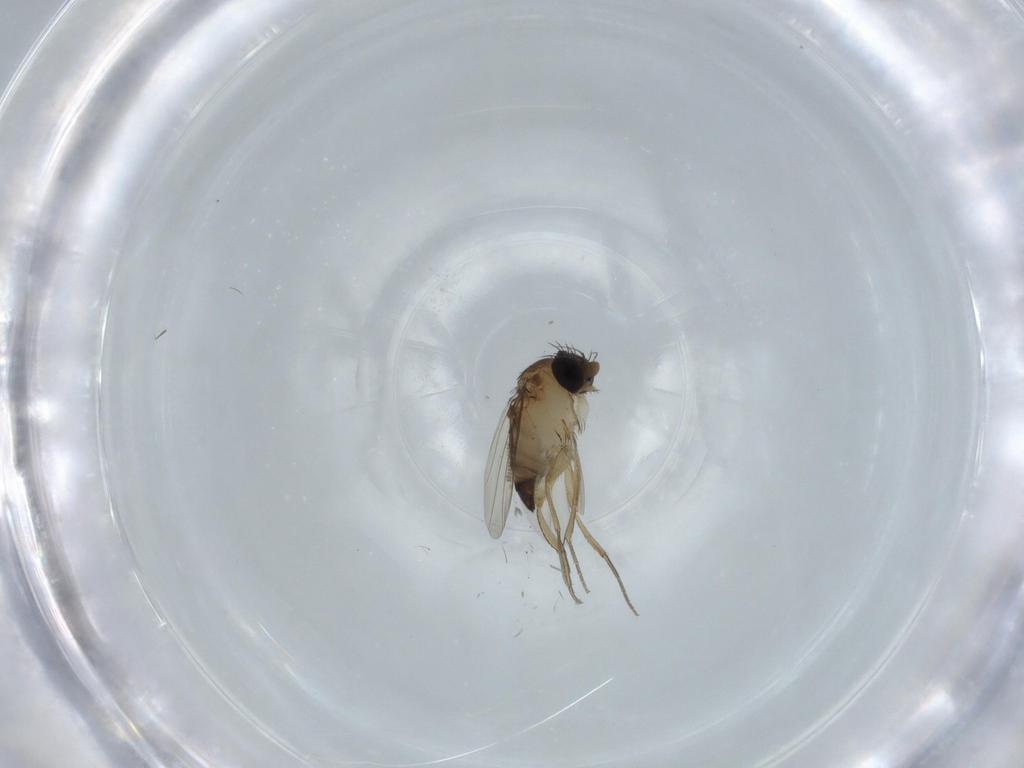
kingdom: Animalia
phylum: Arthropoda
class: Insecta
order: Diptera
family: Phoridae
